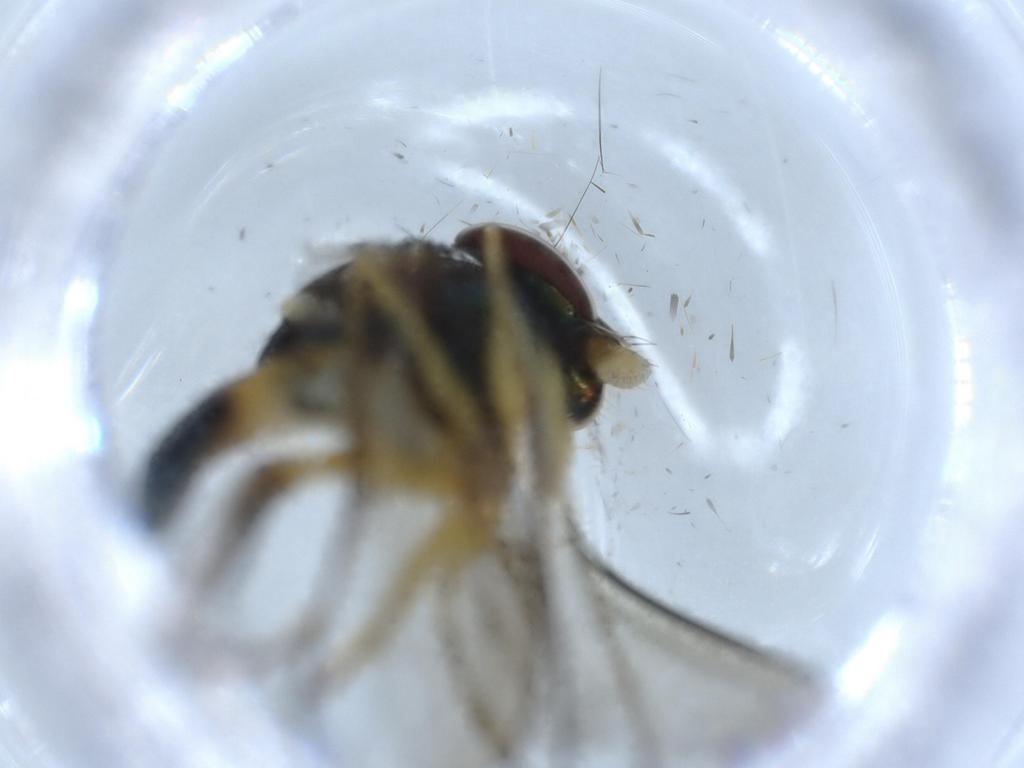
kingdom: Animalia
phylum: Arthropoda
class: Insecta
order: Diptera
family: Dolichopodidae
